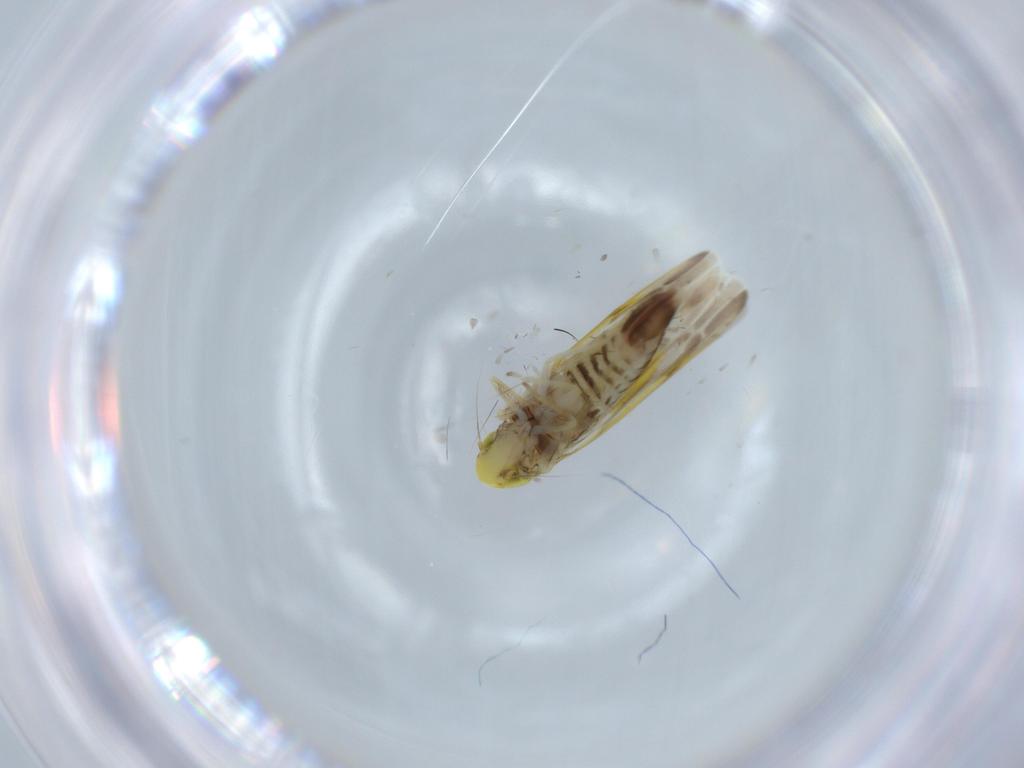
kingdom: Animalia
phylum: Arthropoda
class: Insecta
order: Hemiptera
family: Cicadellidae
